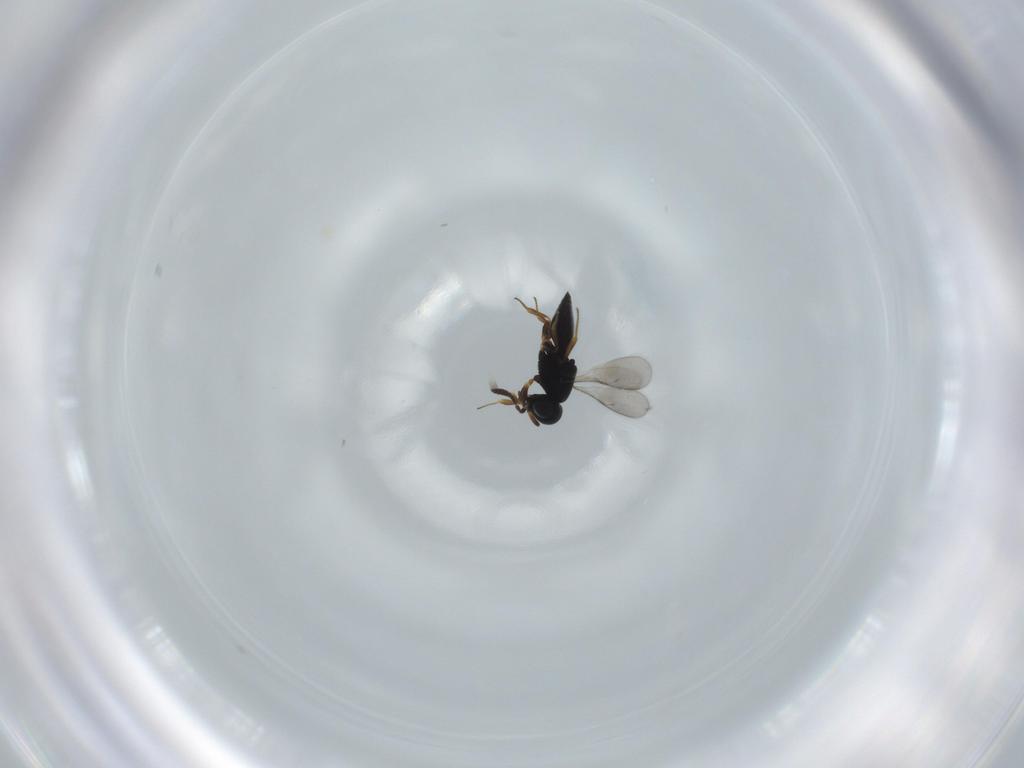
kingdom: Animalia
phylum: Arthropoda
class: Insecta
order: Hymenoptera
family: Scelionidae
